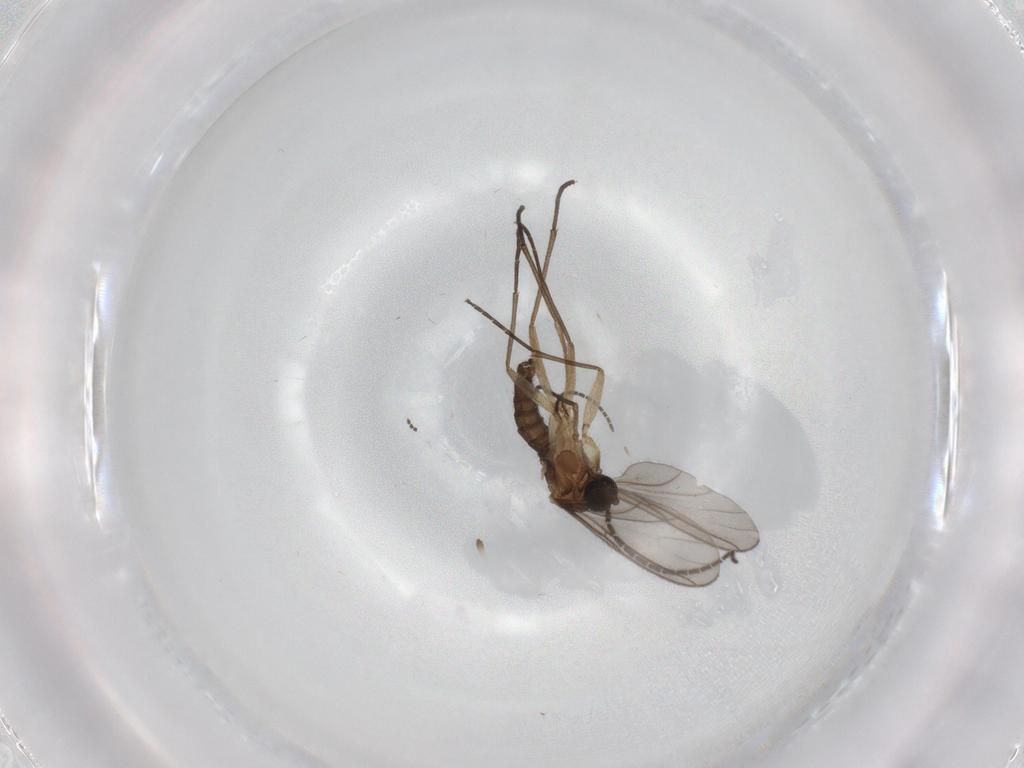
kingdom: Animalia
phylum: Arthropoda
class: Insecta
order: Diptera
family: Sciaridae
